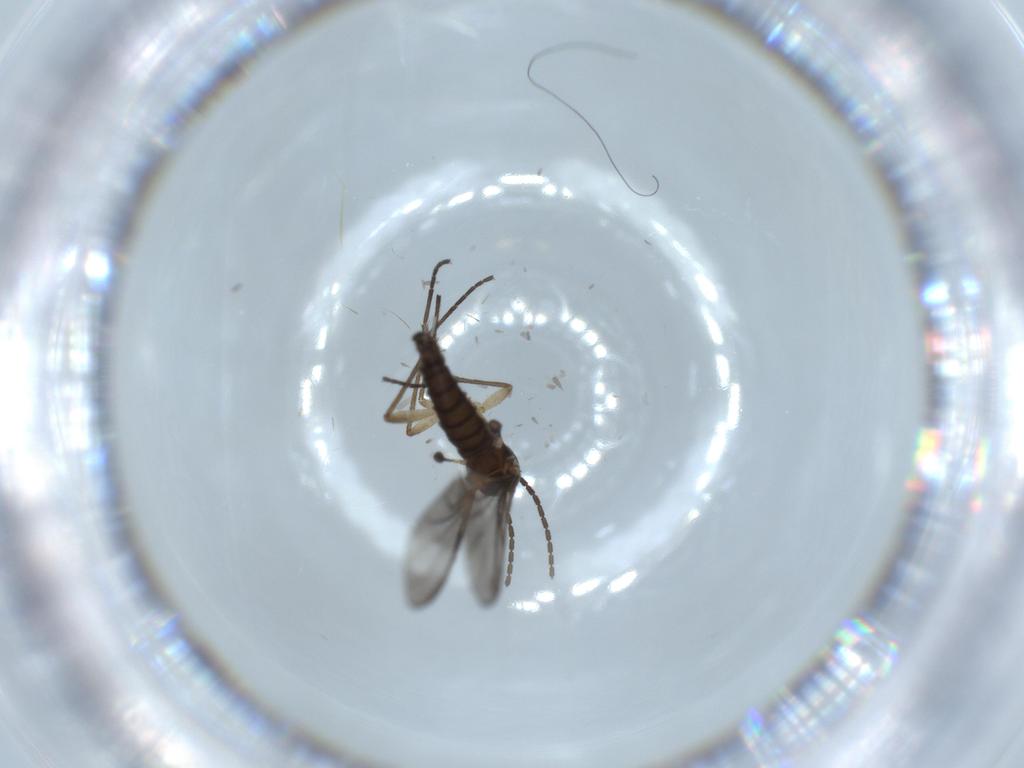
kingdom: Animalia
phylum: Arthropoda
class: Insecta
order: Diptera
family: Sciaridae
